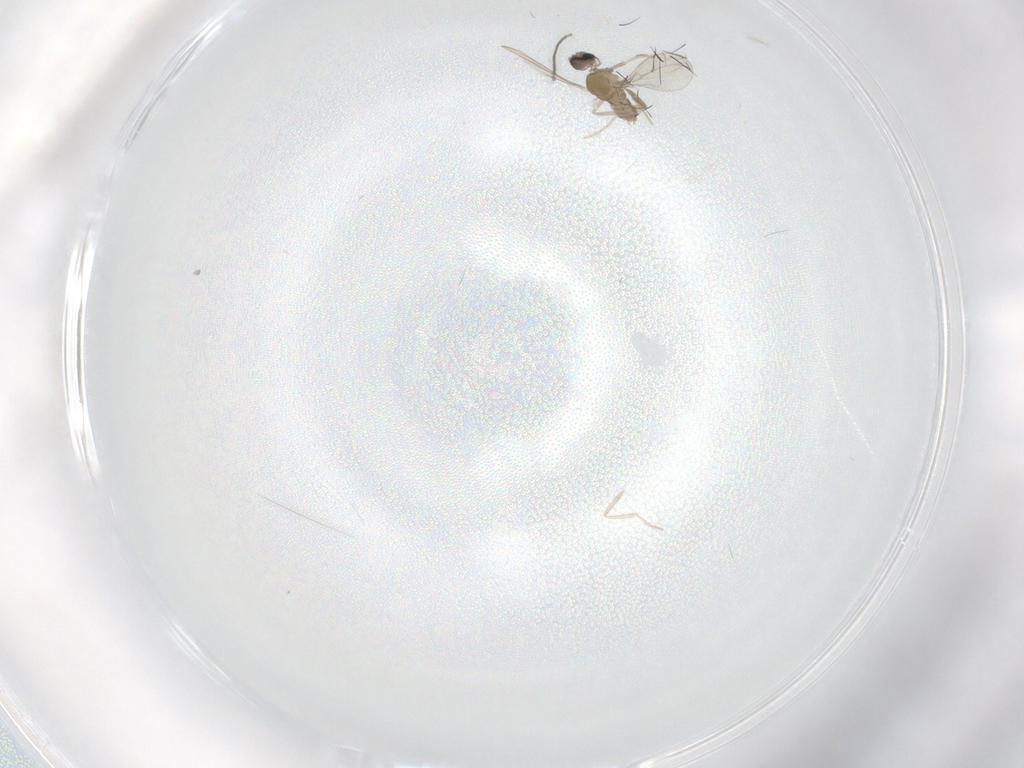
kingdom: Animalia
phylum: Arthropoda
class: Insecta
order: Diptera
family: Cecidomyiidae
